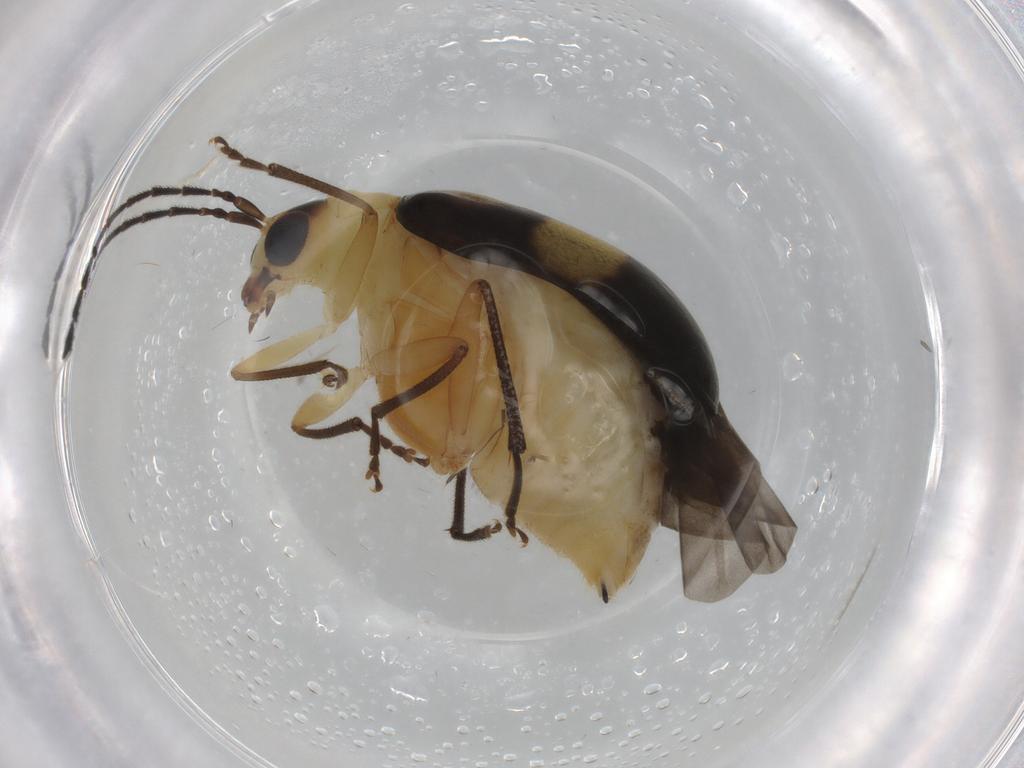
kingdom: Animalia
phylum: Arthropoda
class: Insecta
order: Coleoptera
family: Chrysomelidae
